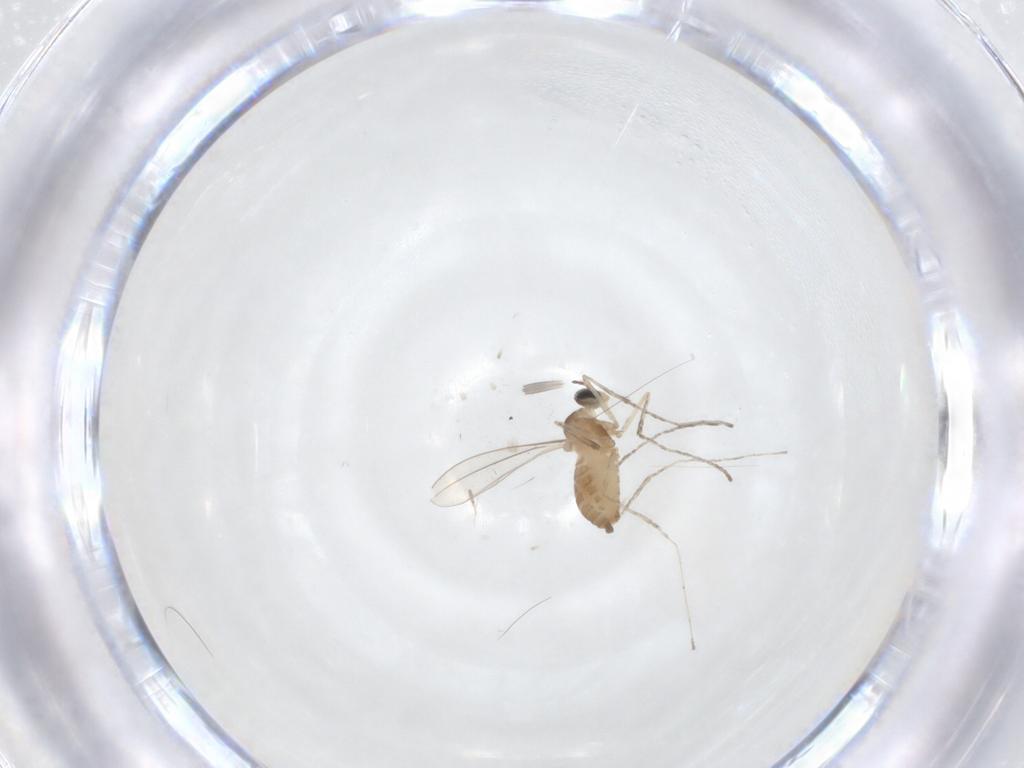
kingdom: Animalia
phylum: Arthropoda
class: Insecta
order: Diptera
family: Cecidomyiidae
